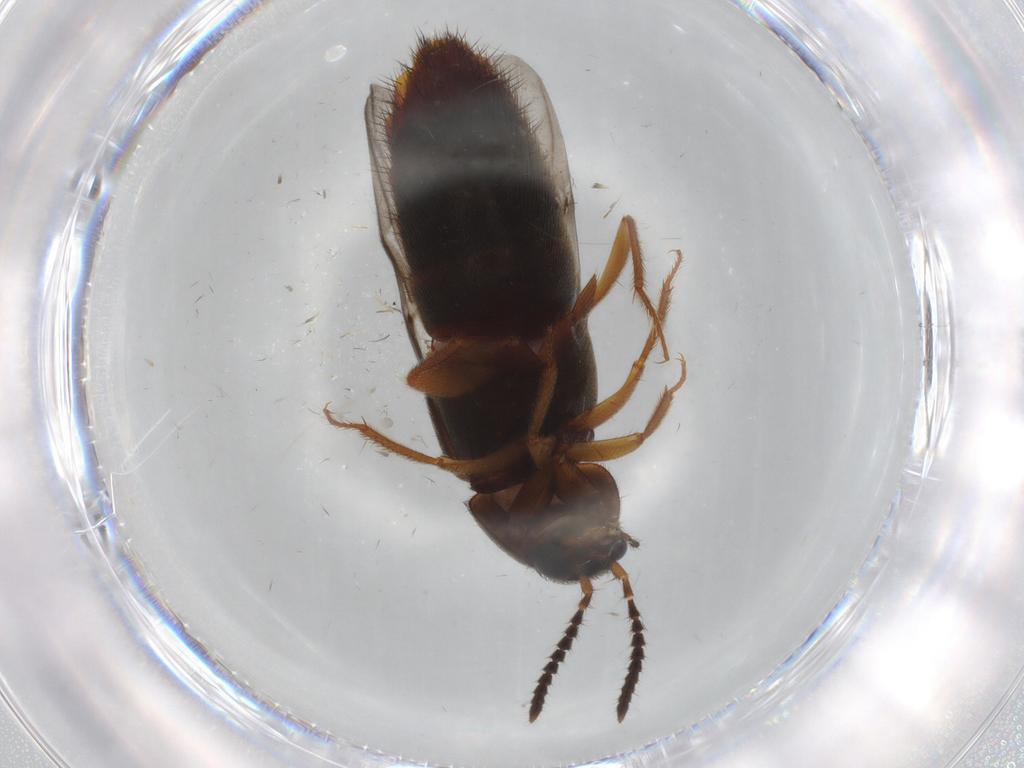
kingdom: Animalia
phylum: Arthropoda
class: Insecta
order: Coleoptera
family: Staphylinidae
